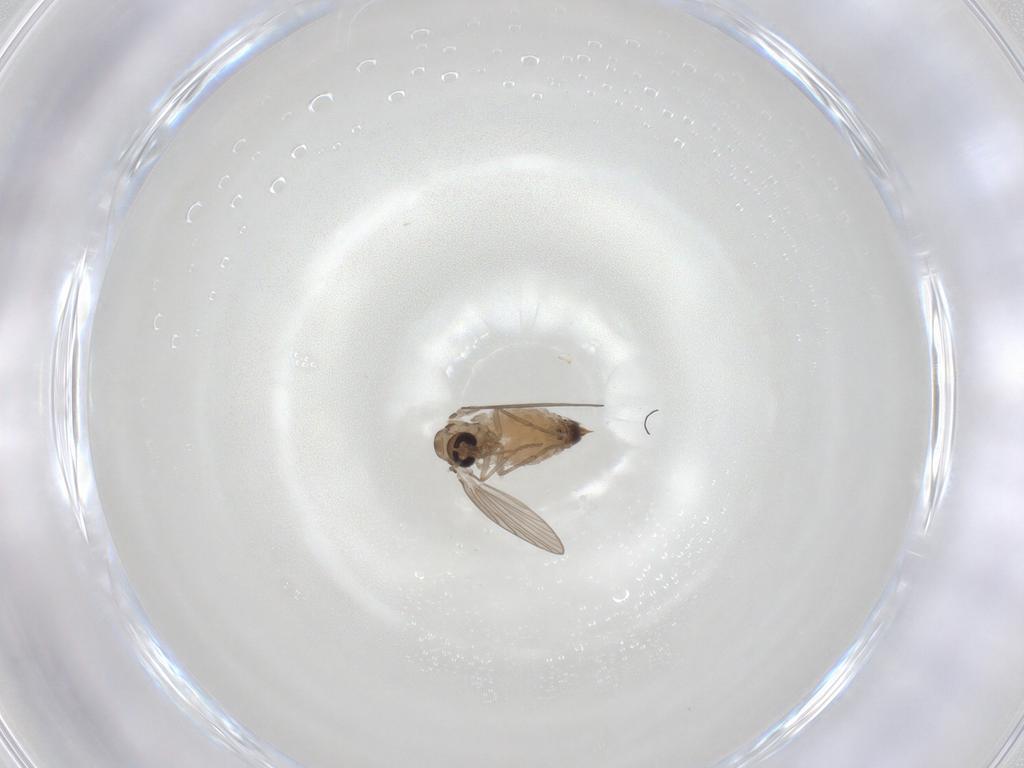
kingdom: Animalia
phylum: Arthropoda
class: Insecta
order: Diptera
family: Psychodidae
